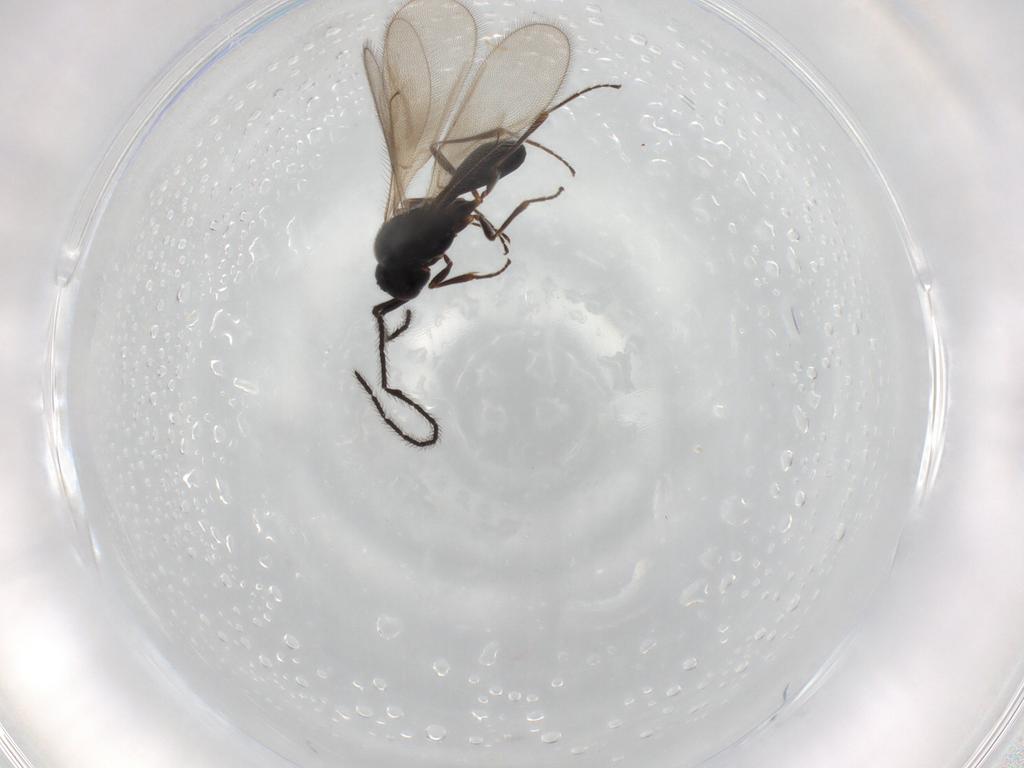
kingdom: Animalia
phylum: Arthropoda
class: Insecta
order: Hymenoptera
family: Scelionidae
